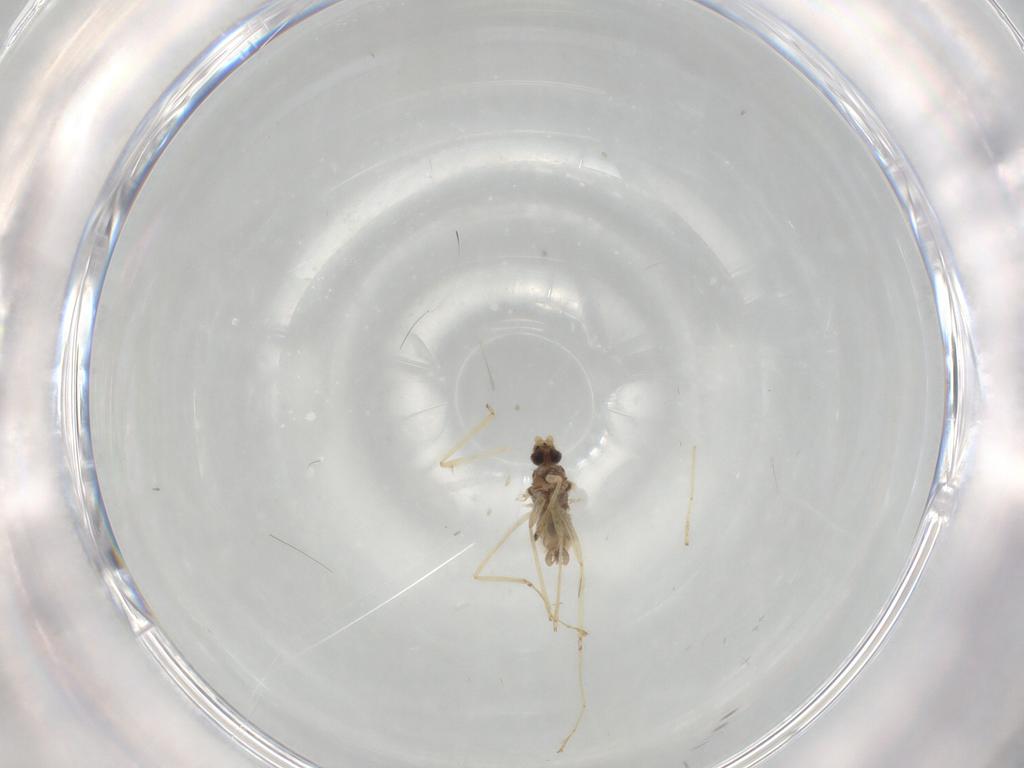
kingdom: Animalia
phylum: Arthropoda
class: Insecta
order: Diptera
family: Cecidomyiidae
